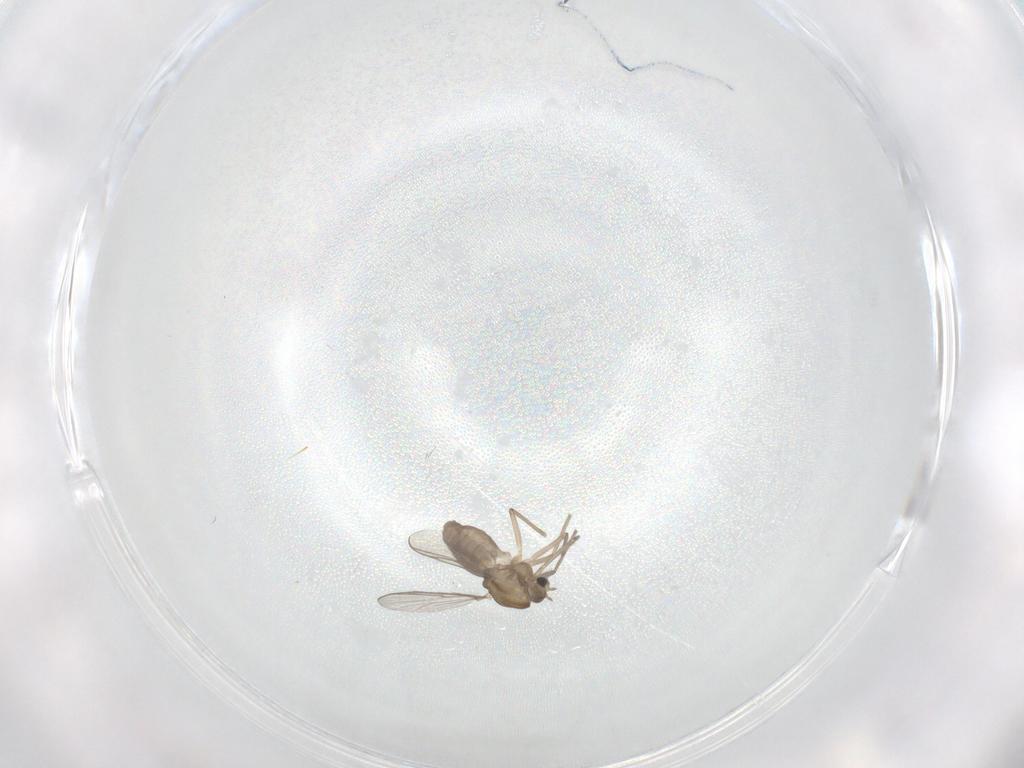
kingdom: Animalia
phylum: Arthropoda
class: Insecta
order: Diptera
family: Chironomidae
